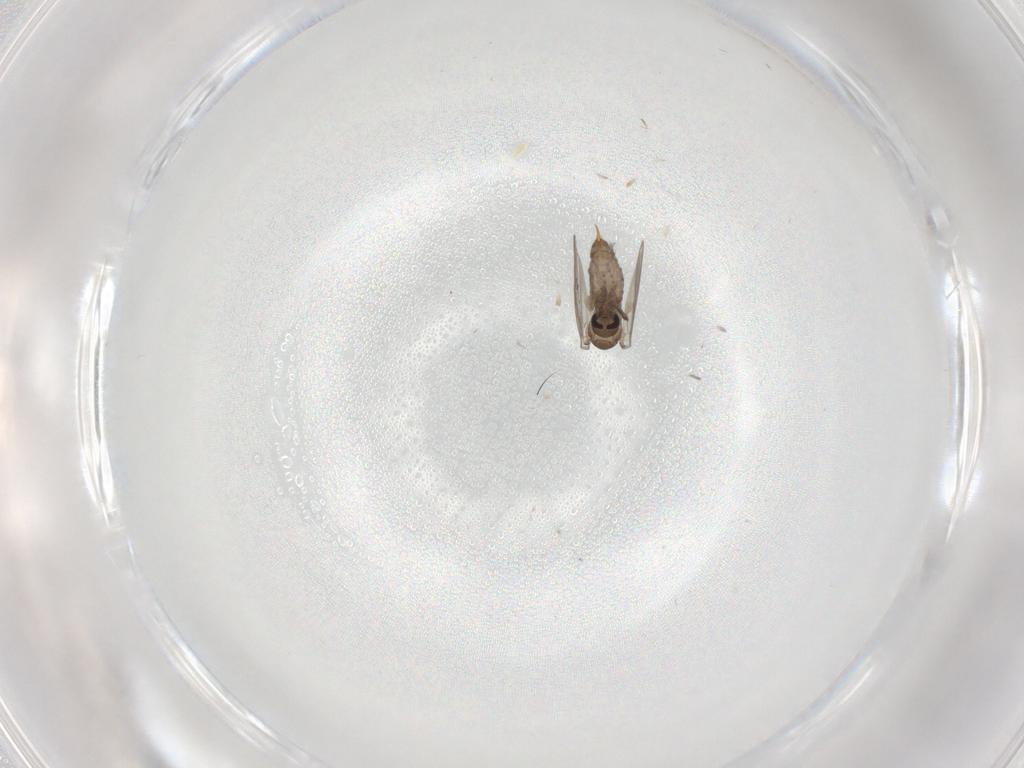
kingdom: Animalia
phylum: Arthropoda
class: Insecta
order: Diptera
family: Psychodidae
